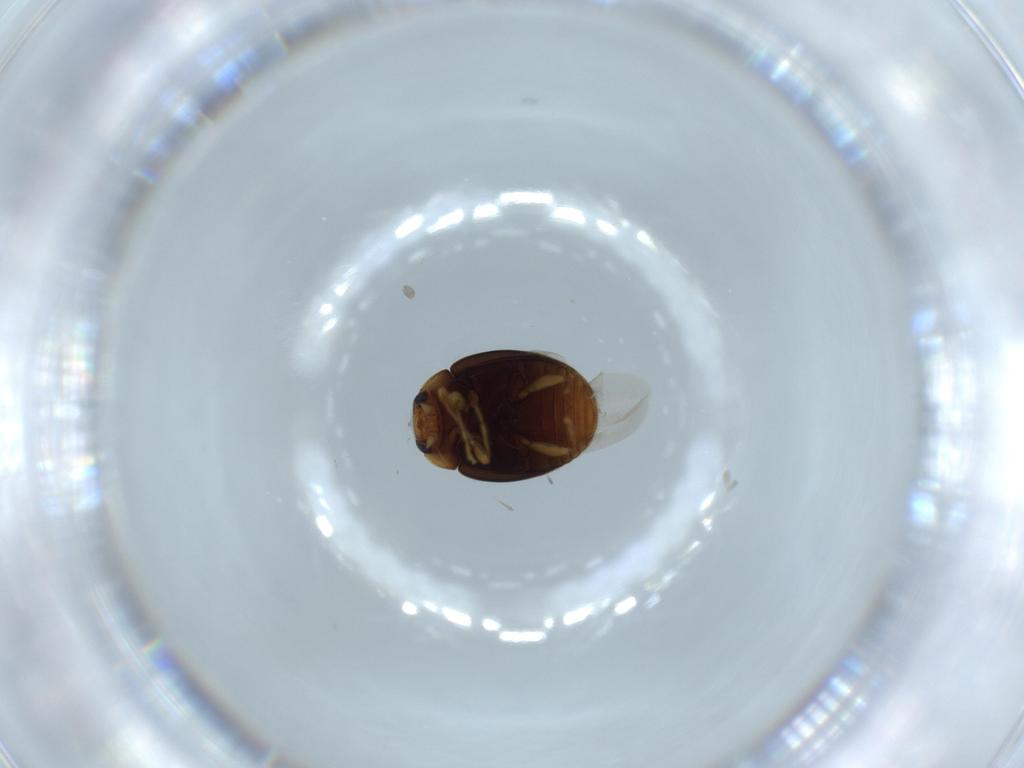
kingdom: Animalia
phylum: Arthropoda
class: Insecta
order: Coleoptera
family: Coccinellidae
